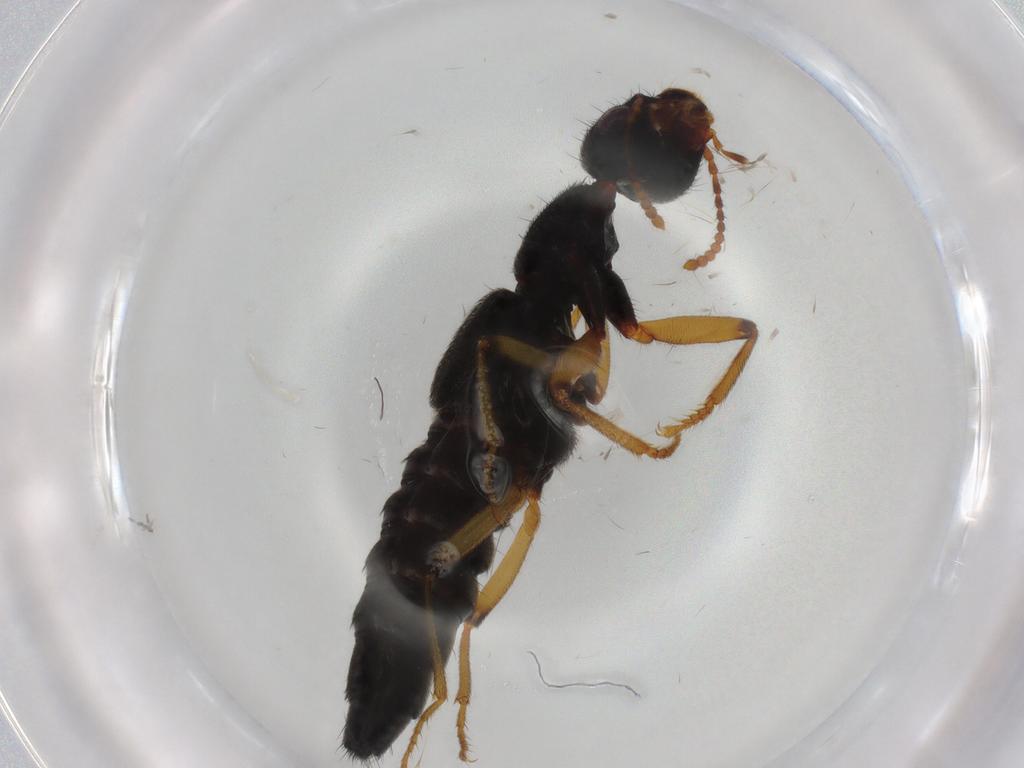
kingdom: Animalia
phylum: Arthropoda
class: Insecta
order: Coleoptera
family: Staphylinidae
